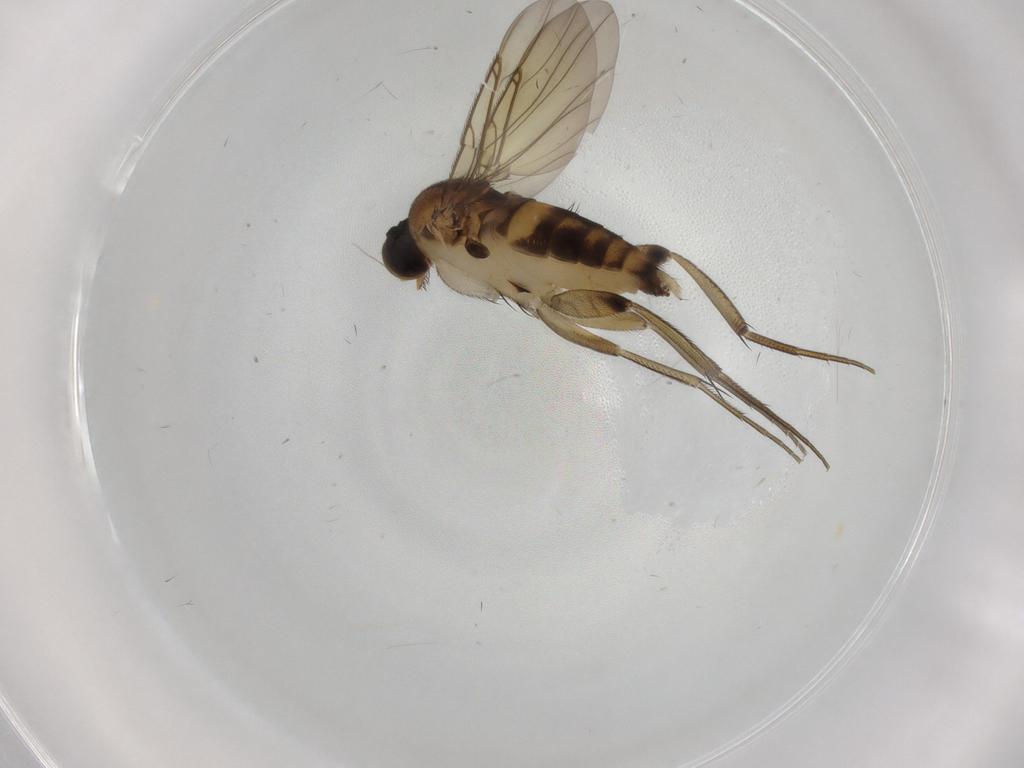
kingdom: Animalia
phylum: Arthropoda
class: Insecta
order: Diptera
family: Phoridae
